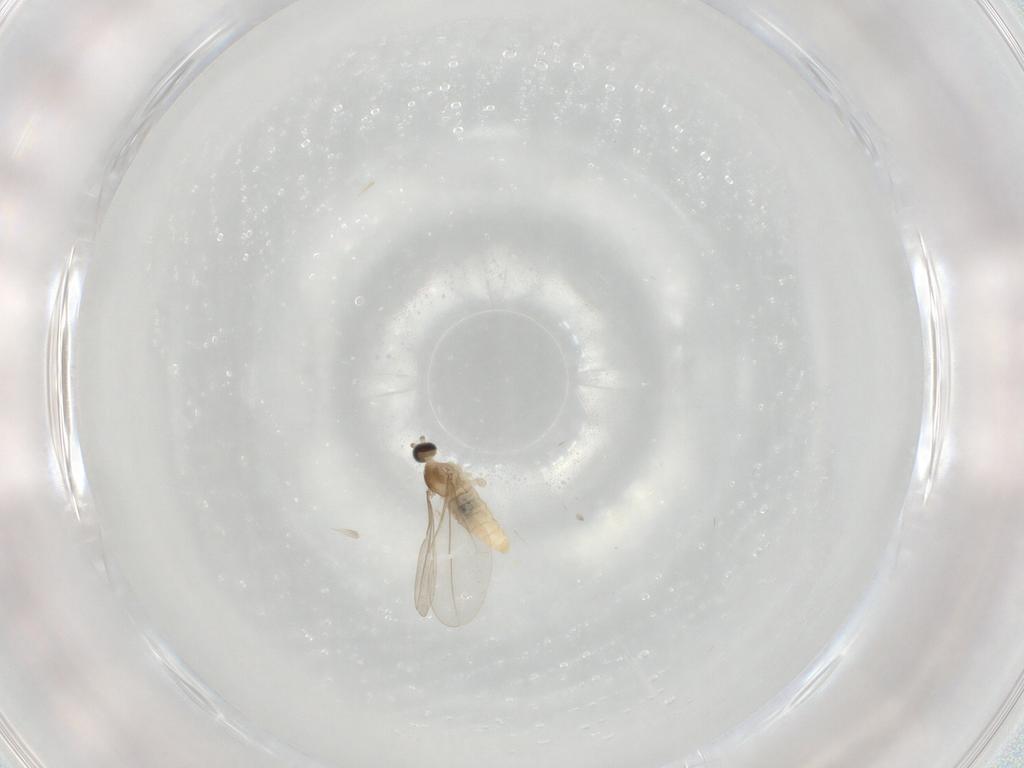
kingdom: Animalia
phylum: Arthropoda
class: Insecta
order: Diptera
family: Cecidomyiidae
